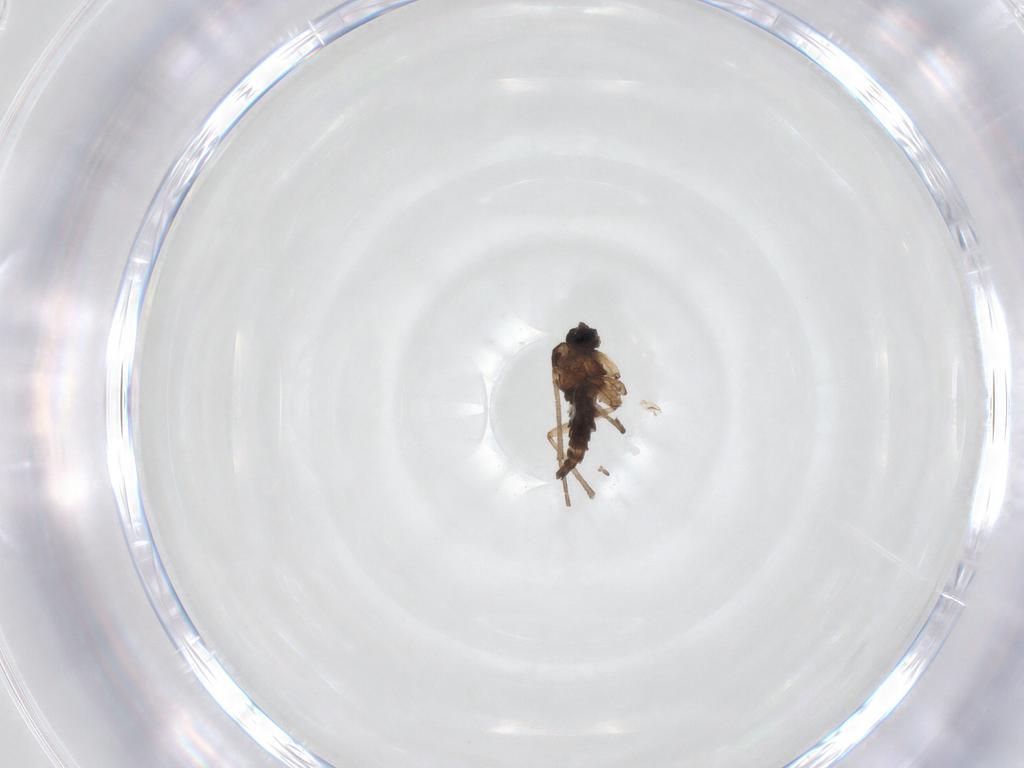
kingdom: Animalia
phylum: Arthropoda
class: Insecta
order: Diptera
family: Sciaridae
